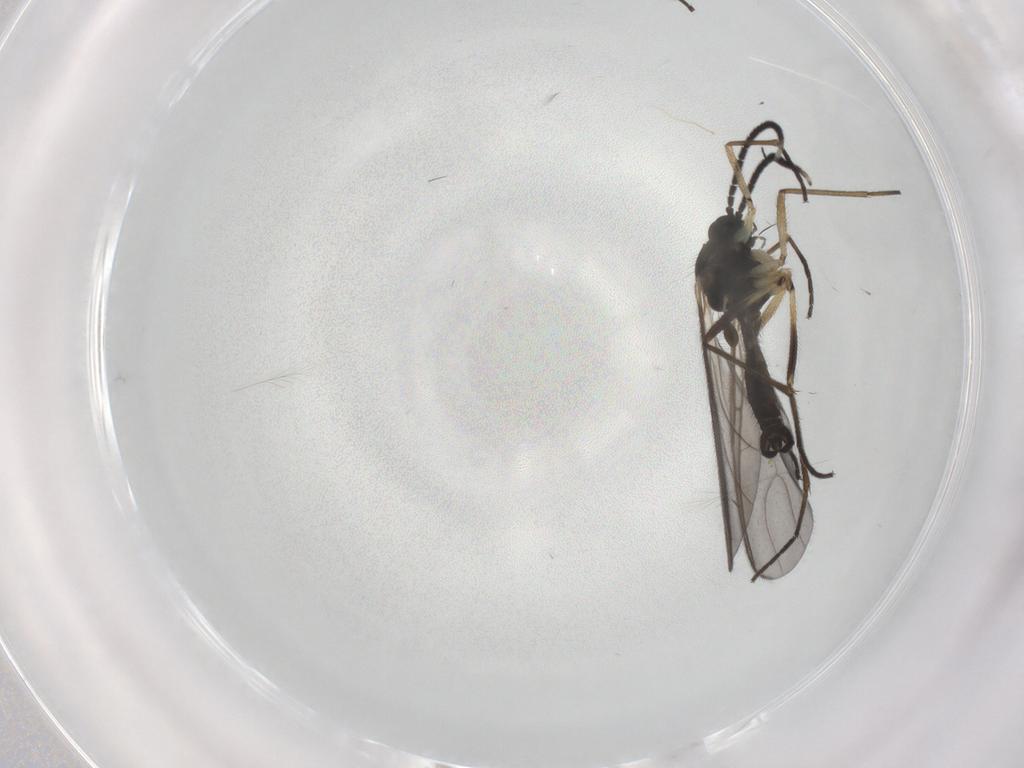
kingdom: Animalia
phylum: Arthropoda
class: Insecta
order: Diptera
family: Sciaridae
